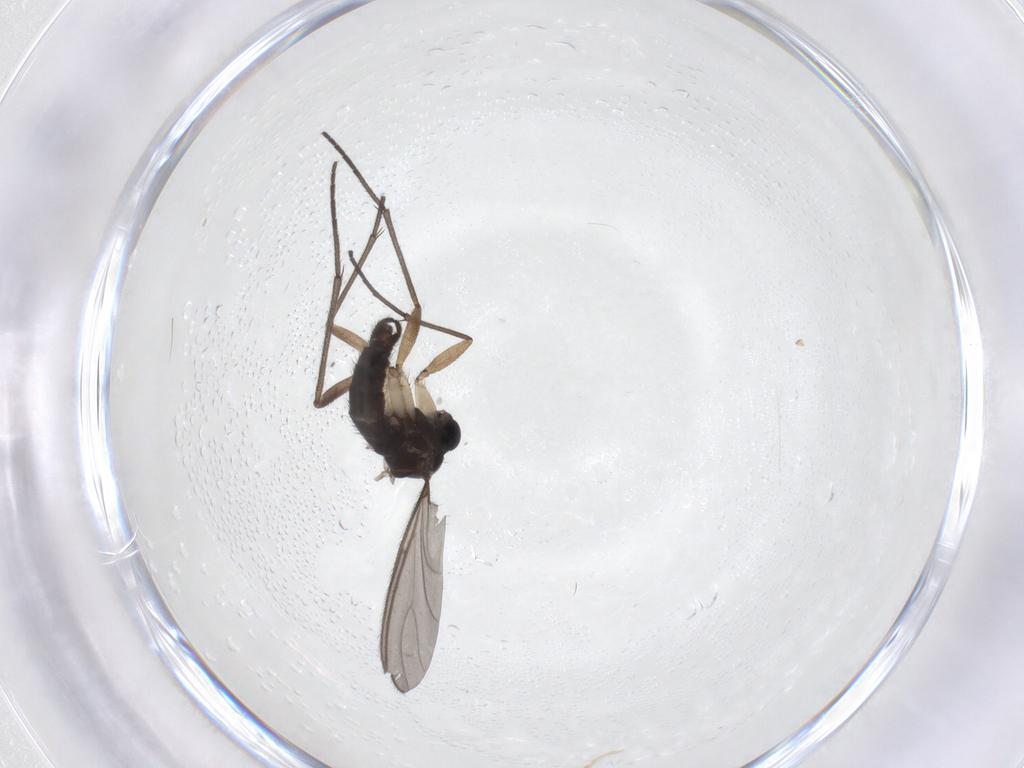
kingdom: Animalia
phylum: Arthropoda
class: Insecta
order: Diptera
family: Sciaridae
